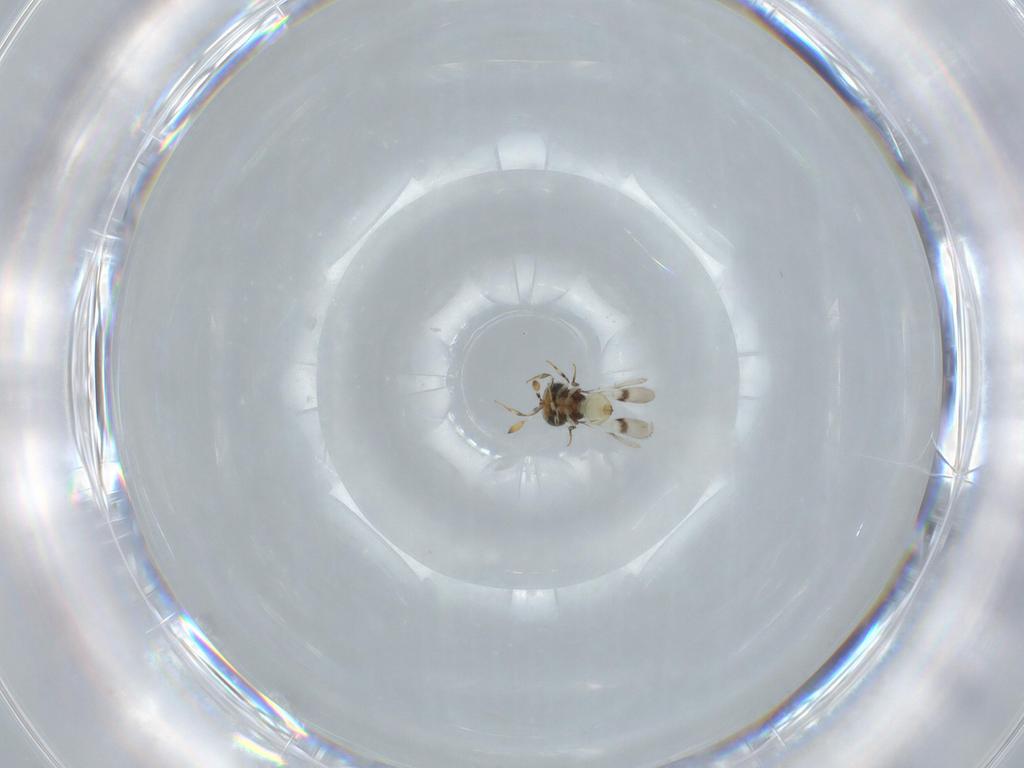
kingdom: Animalia
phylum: Arthropoda
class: Insecta
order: Hymenoptera
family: Scelionidae
